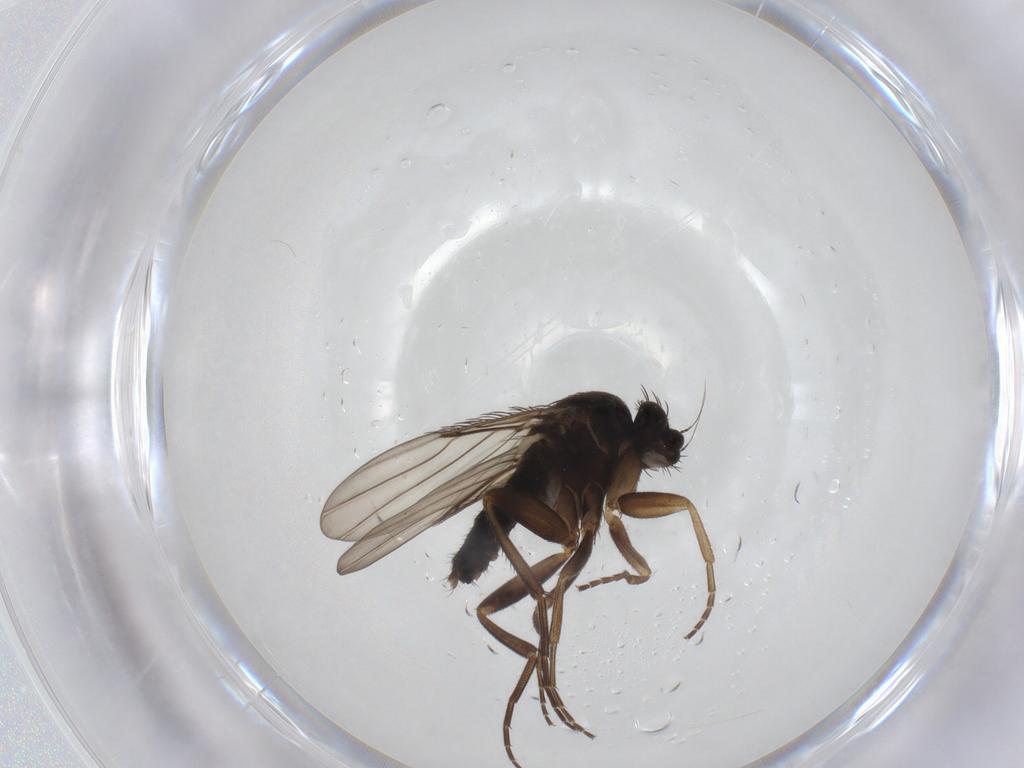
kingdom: Animalia
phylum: Arthropoda
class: Insecta
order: Diptera
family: Phoridae
